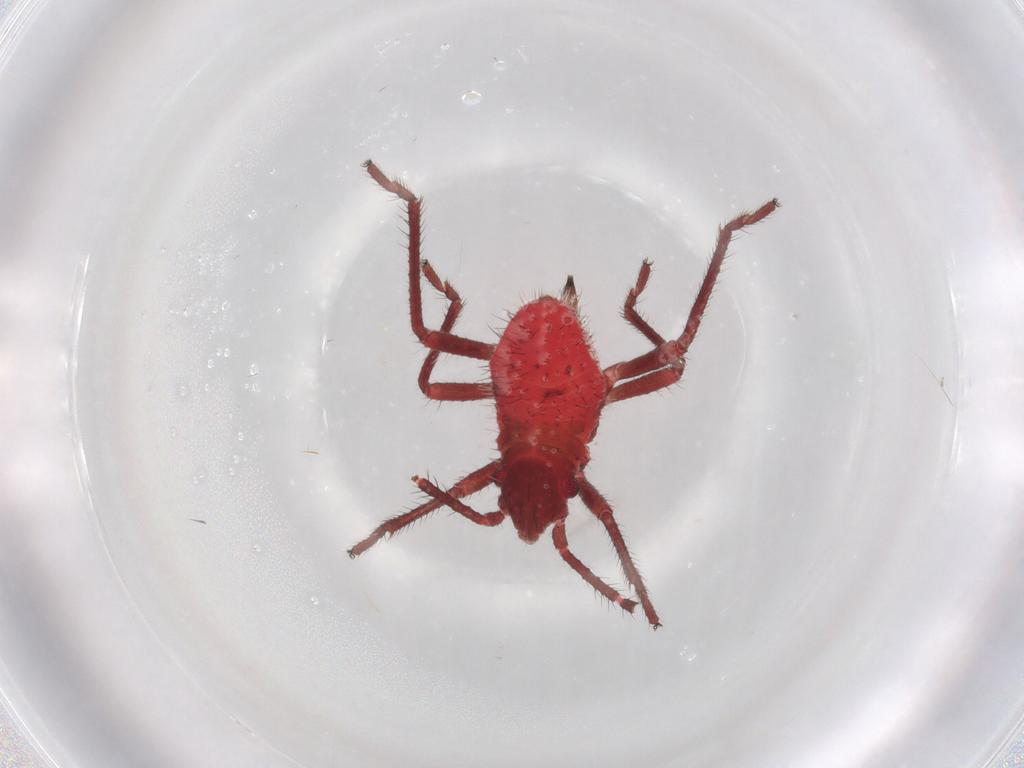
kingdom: Animalia
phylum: Arthropoda
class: Insecta
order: Hemiptera
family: Rhopalidae
